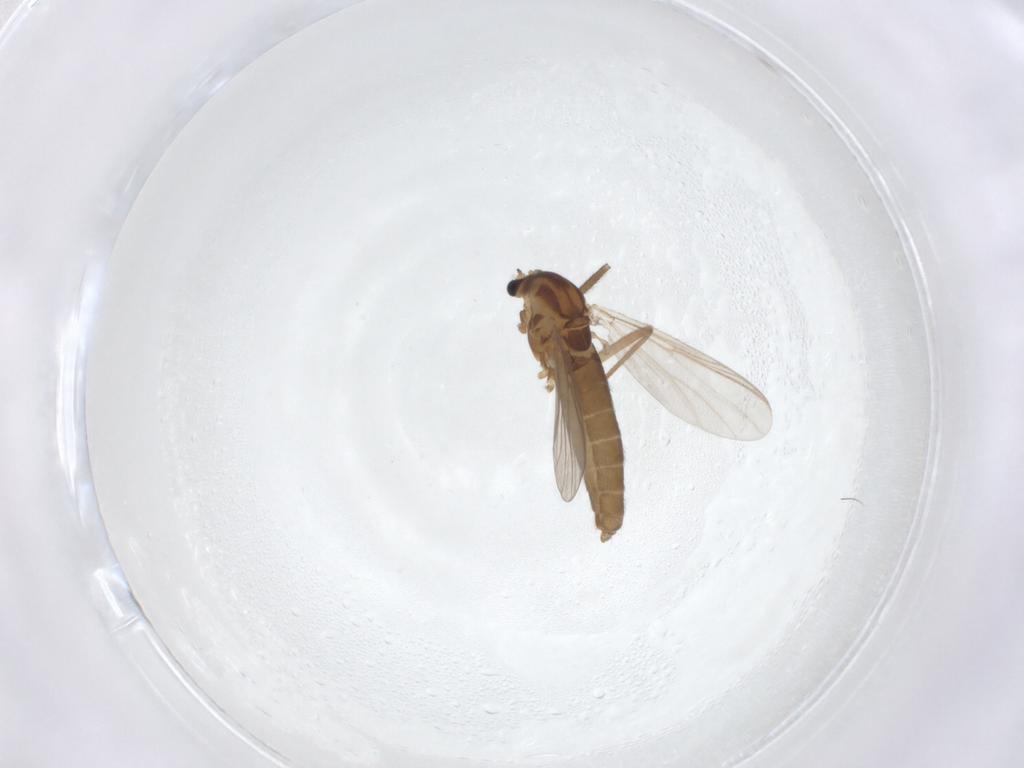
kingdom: Animalia
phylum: Arthropoda
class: Insecta
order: Diptera
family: Chironomidae
